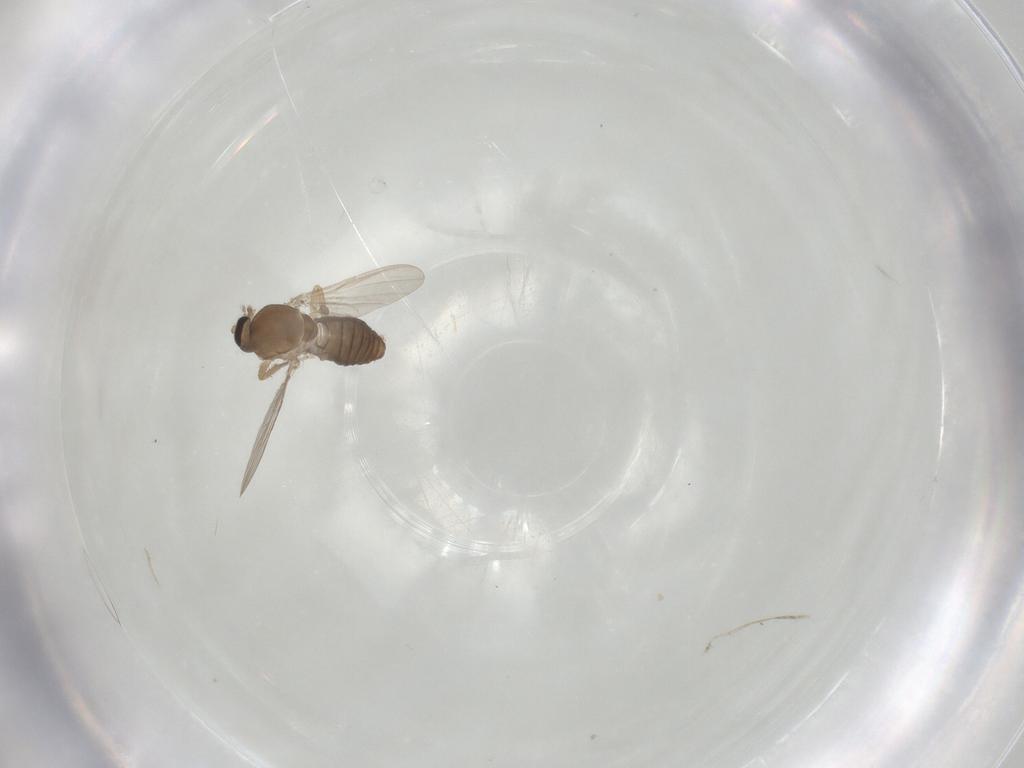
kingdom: Animalia
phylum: Arthropoda
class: Insecta
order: Diptera
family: Ceratopogonidae
